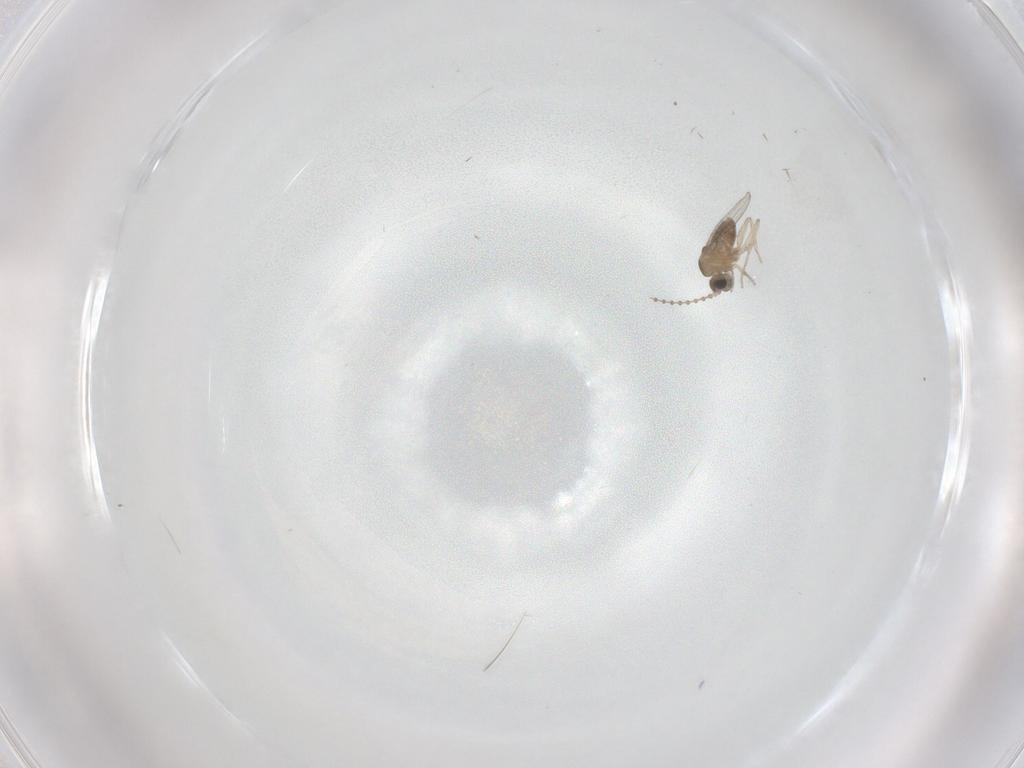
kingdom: Animalia
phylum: Arthropoda
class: Insecta
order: Diptera
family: Cecidomyiidae
